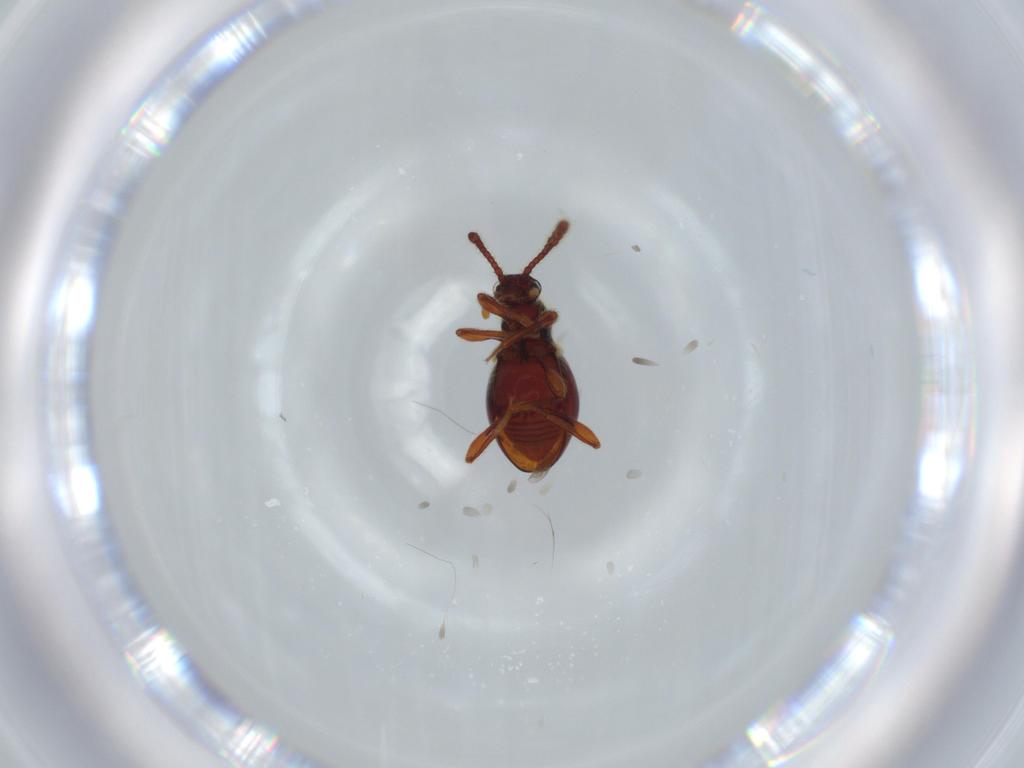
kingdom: Animalia
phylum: Arthropoda
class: Insecta
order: Coleoptera
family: Staphylinidae
